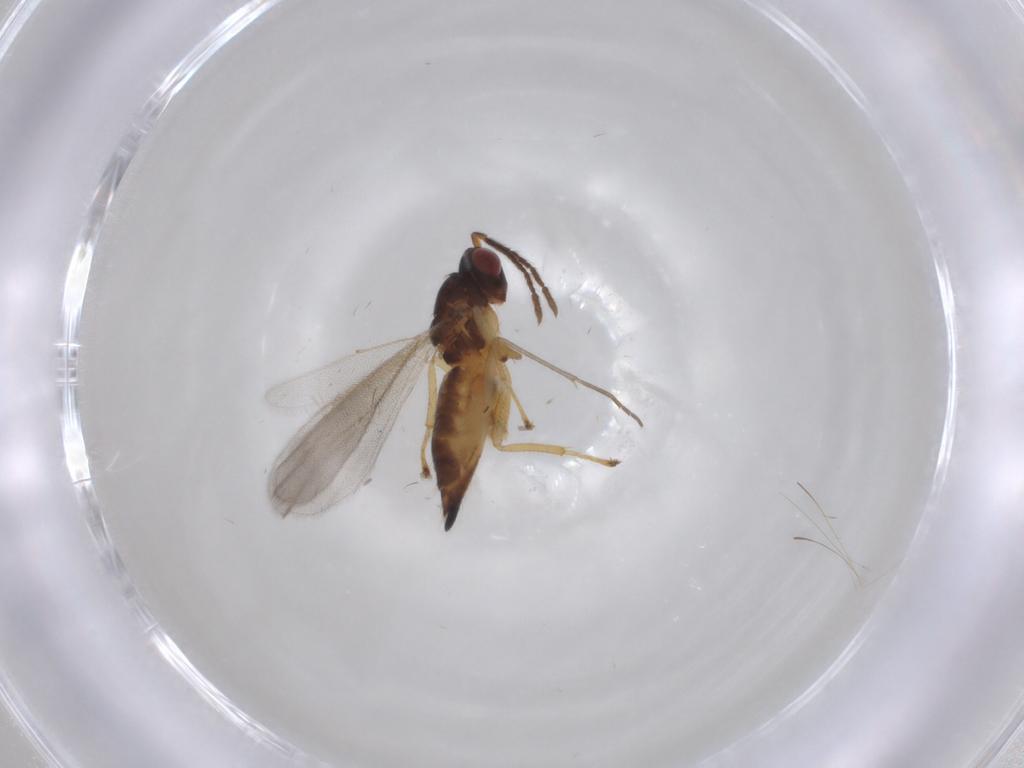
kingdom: Animalia
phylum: Arthropoda
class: Insecta
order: Hymenoptera
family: Eulophidae
